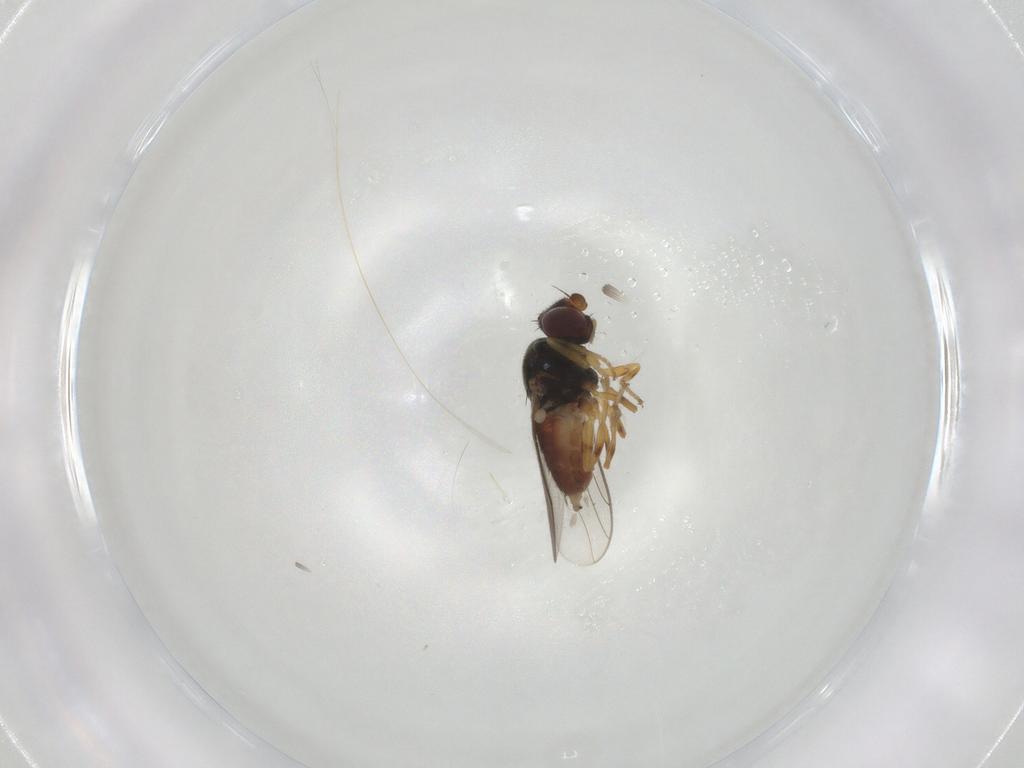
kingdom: Animalia
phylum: Arthropoda
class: Insecta
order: Diptera
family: Chloropidae
